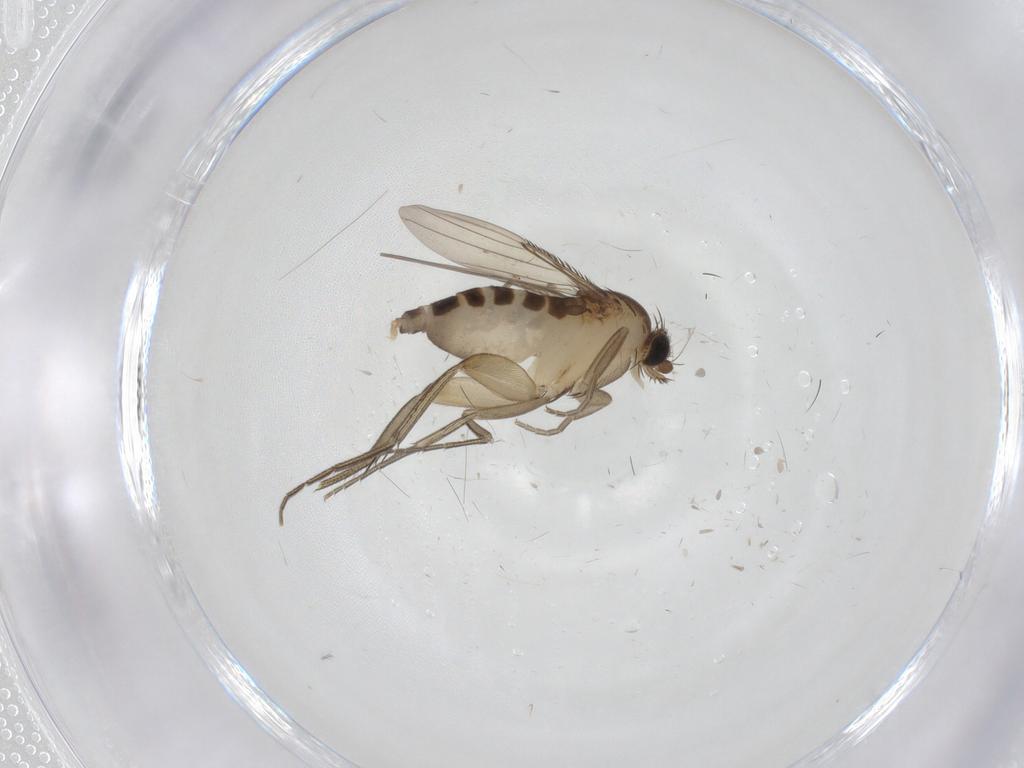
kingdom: Animalia
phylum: Arthropoda
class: Insecta
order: Diptera
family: Phoridae
